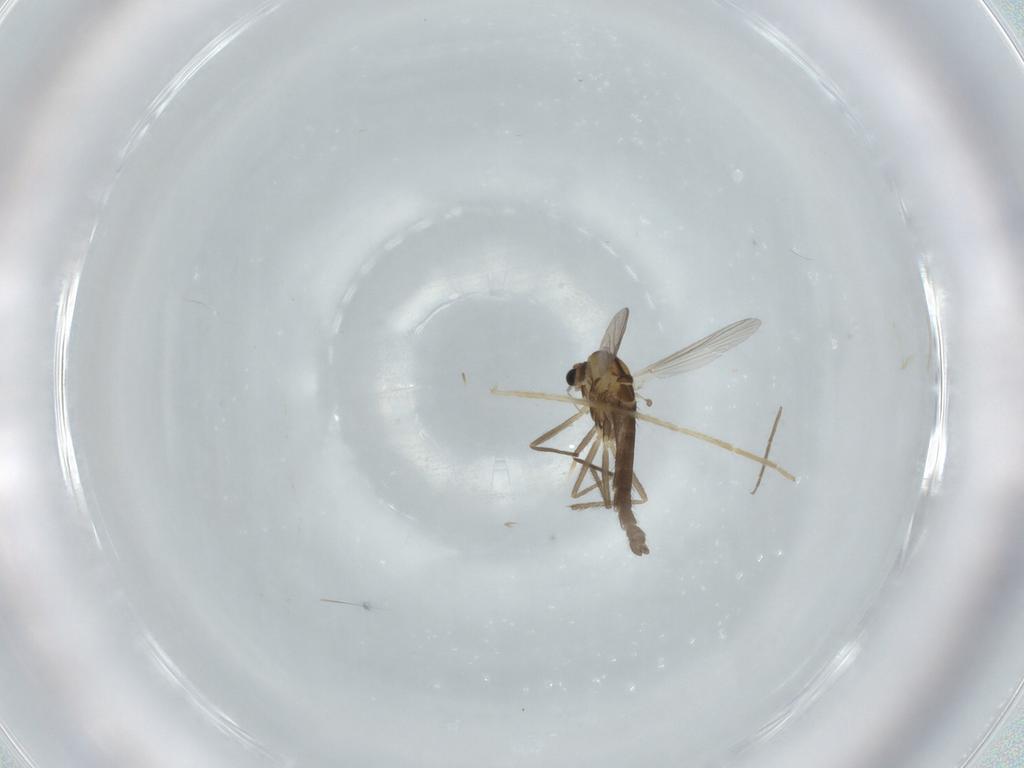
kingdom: Animalia
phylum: Arthropoda
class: Insecta
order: Diptera
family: Chironomidae
